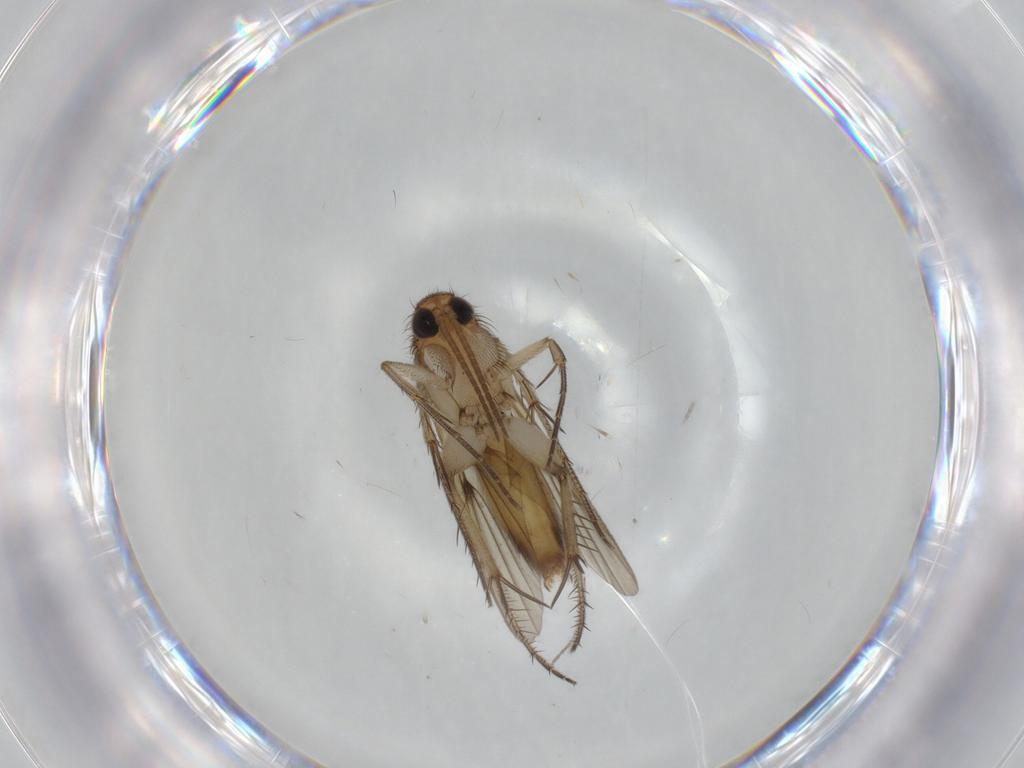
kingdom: Animalia
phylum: Arthropoda
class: Insecta
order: Diptera
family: Chironomidae
